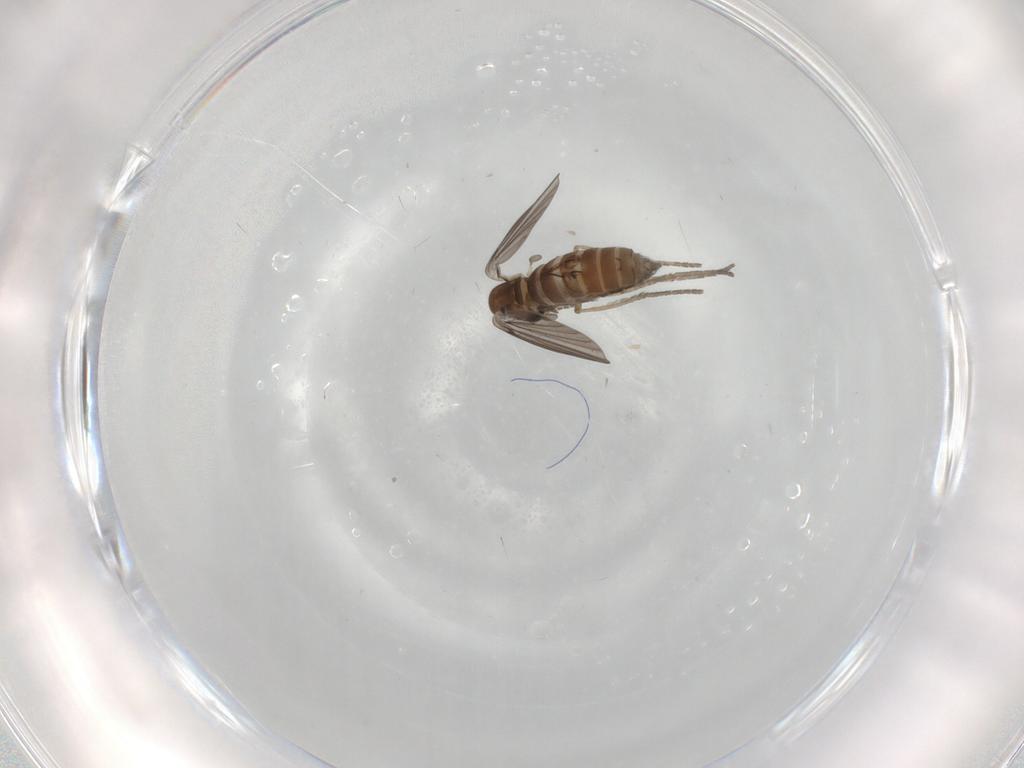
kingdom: Animalia
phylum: Arthropoda
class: Insecta
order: Diptera
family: Limoniidae
